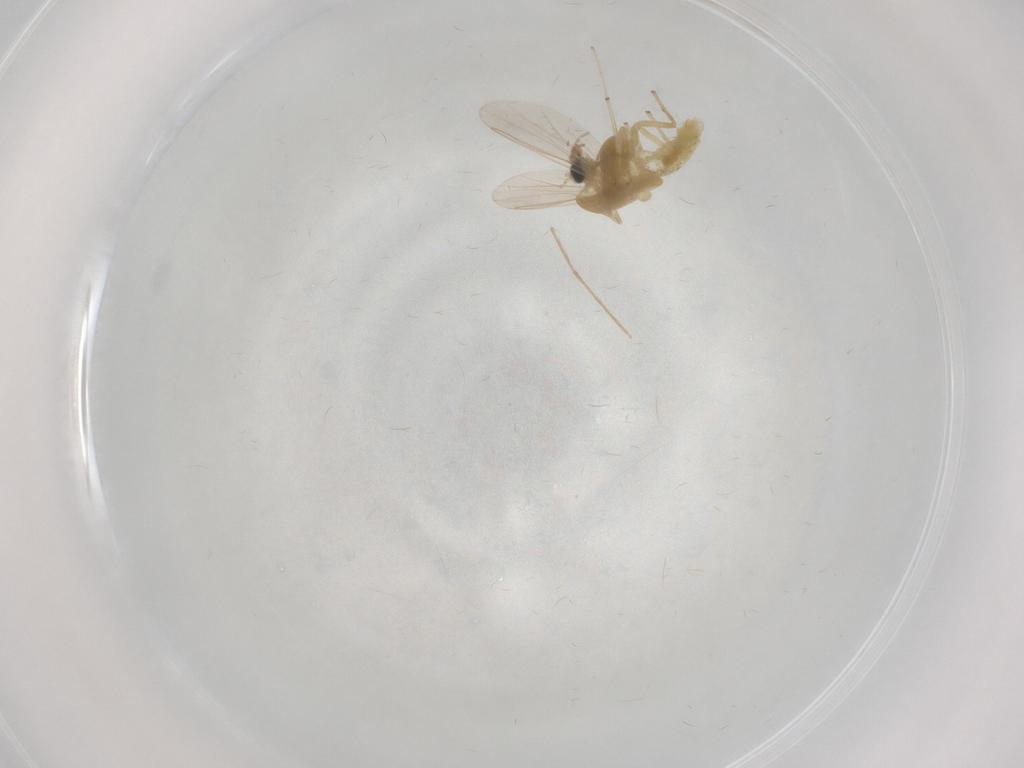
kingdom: Animalia
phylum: Arthropoda
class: Insecta
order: Diptera
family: Chironomidae
